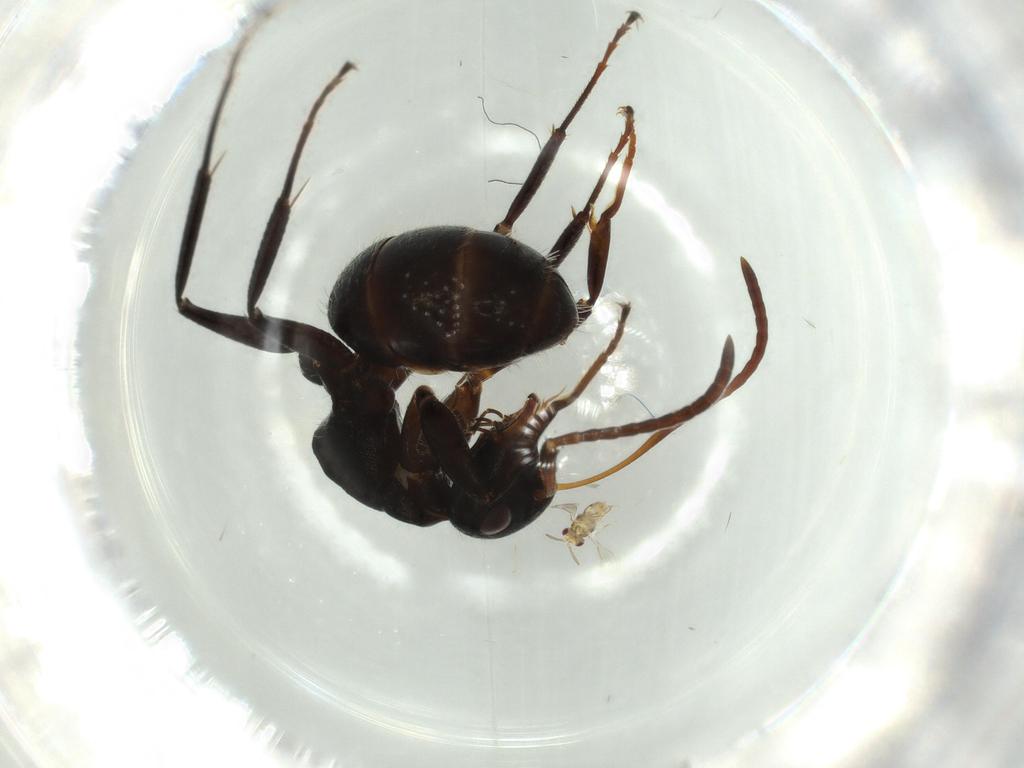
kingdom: Animalia
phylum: Arthropoda
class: Insecta
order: Hymenoptera
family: Aphelinidae
